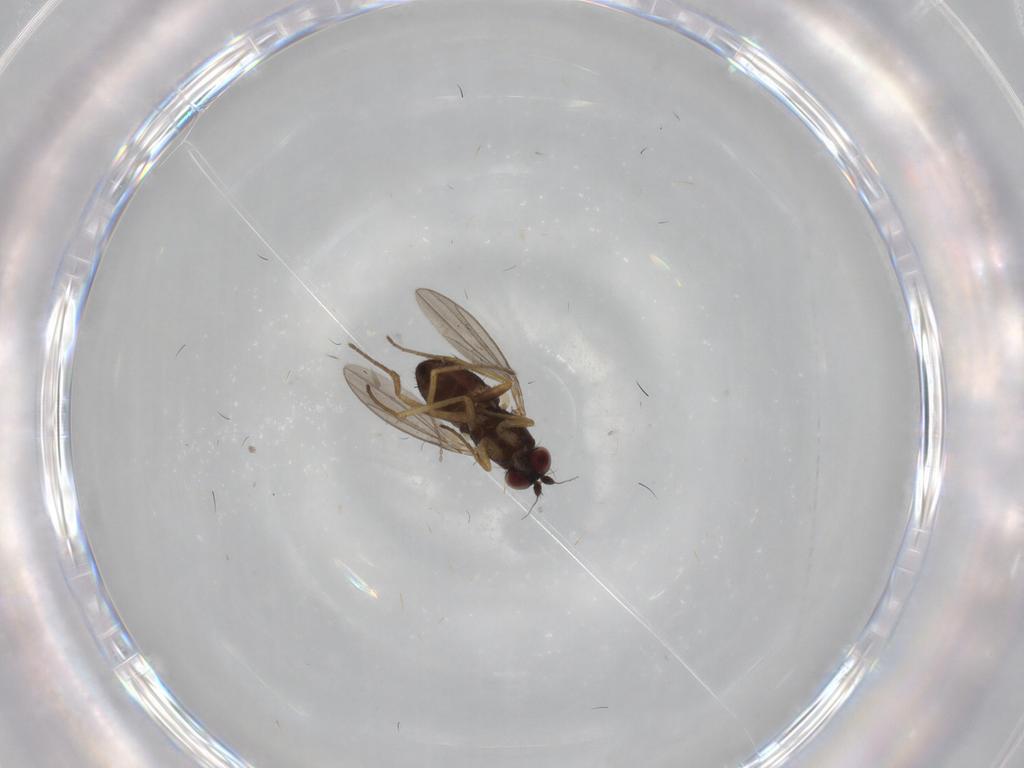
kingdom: Animalia
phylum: Arthropoda
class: Insecta
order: Diptera
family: Dolichopodidae
